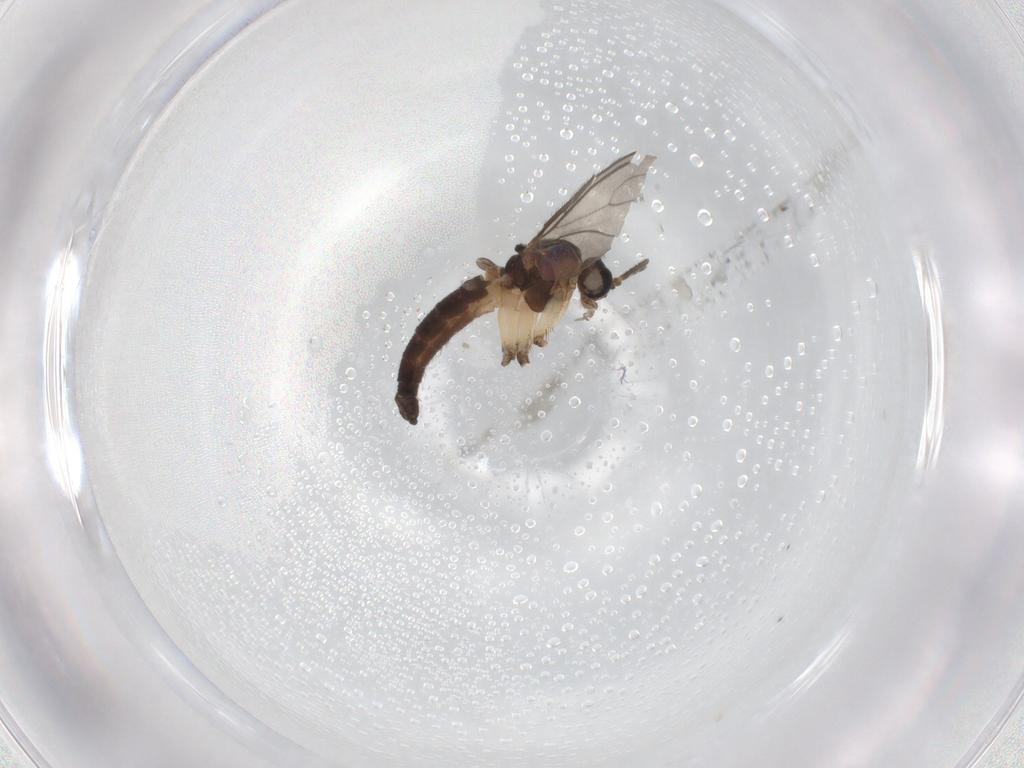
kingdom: Animalia
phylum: Arthropoda
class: Insecta
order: Diptera
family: Sciaridae
